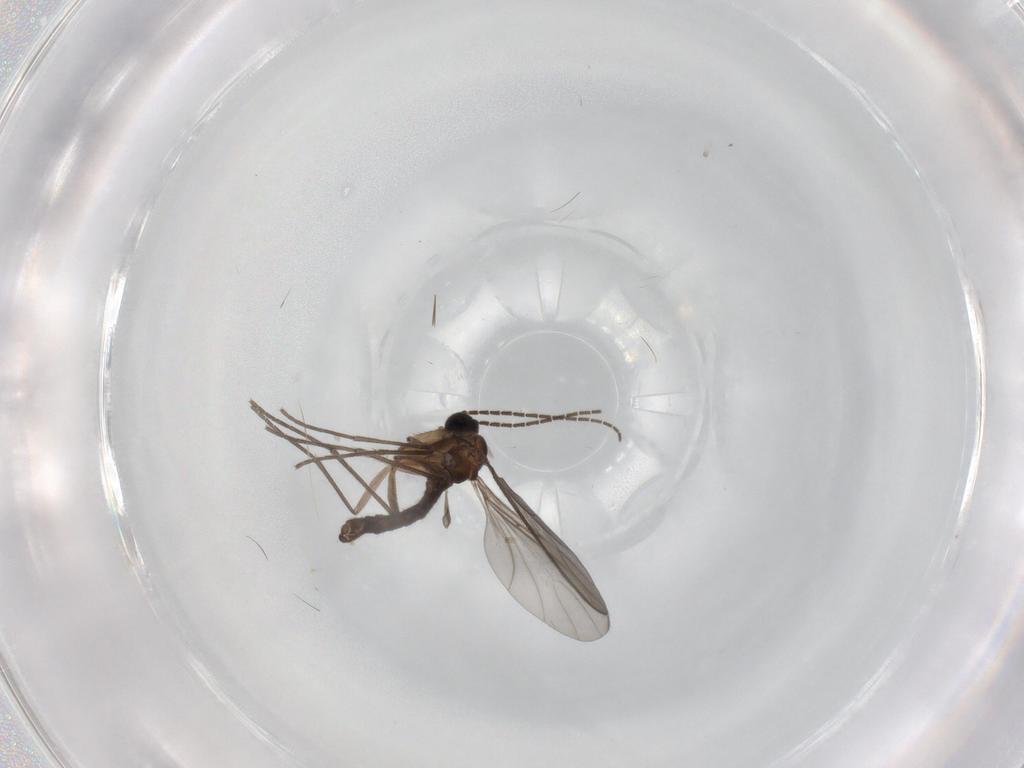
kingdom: Animalia
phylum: Arthropoda
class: Insecta
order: Diptera
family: Sciaridae
